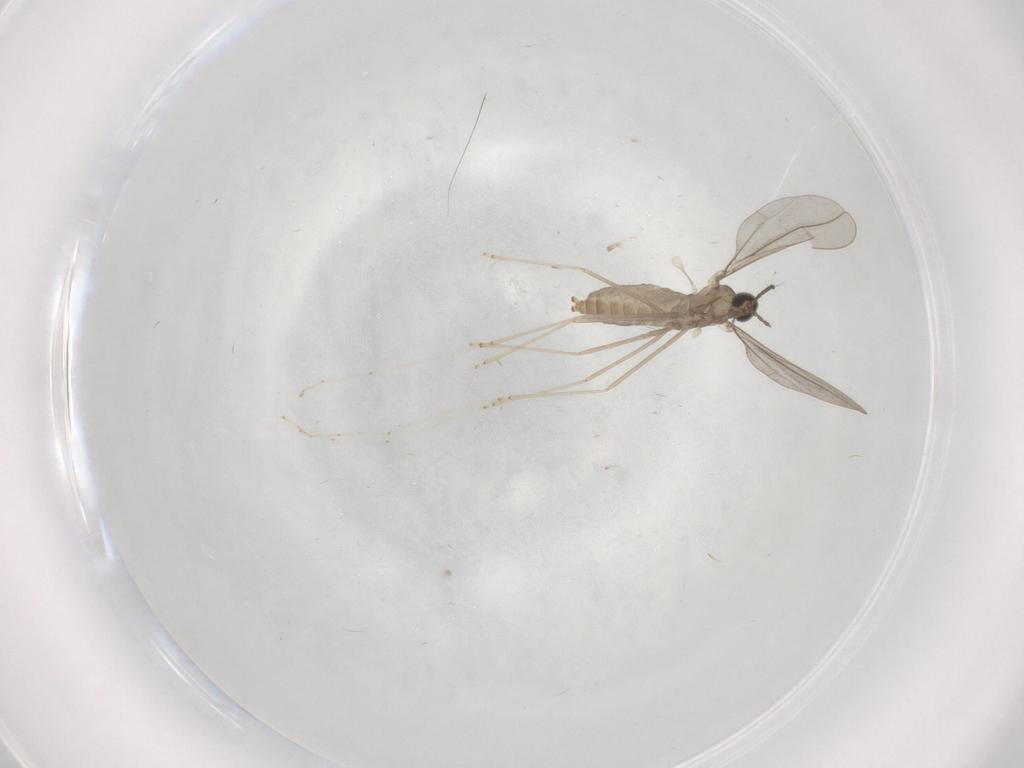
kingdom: Animalia
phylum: Arthropoda
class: Insecta
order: Diptera
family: Cecidomyiidae
